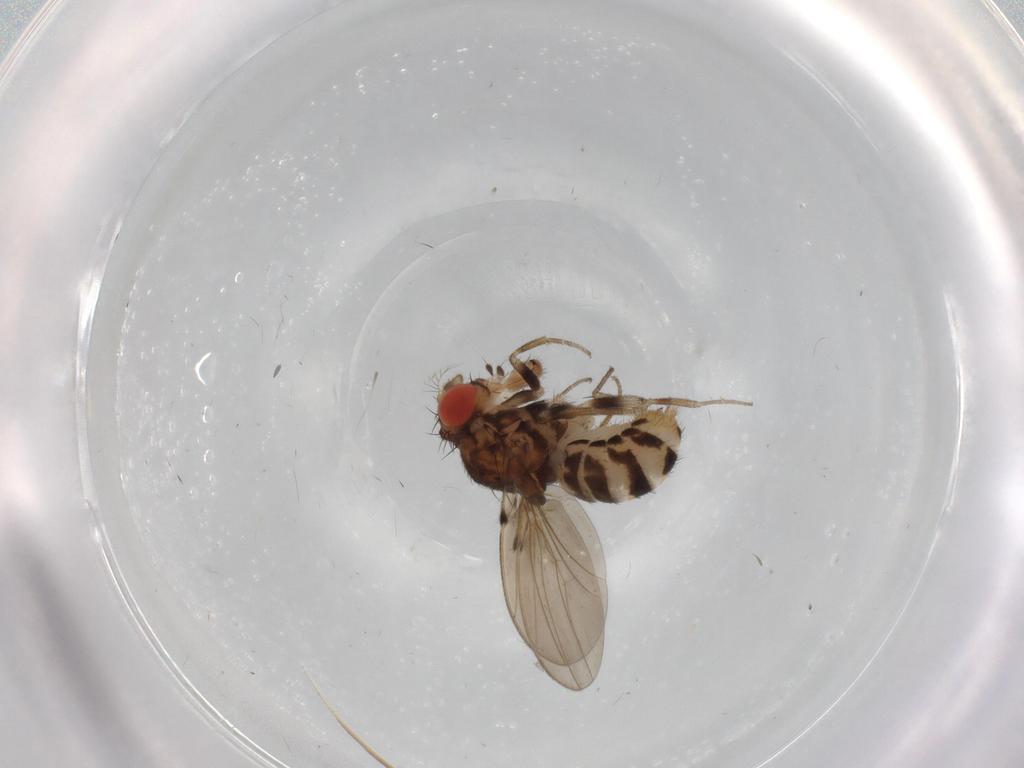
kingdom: Animalia
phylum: Arthropoda
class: Insecta
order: Diptera
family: Drosophilidae
